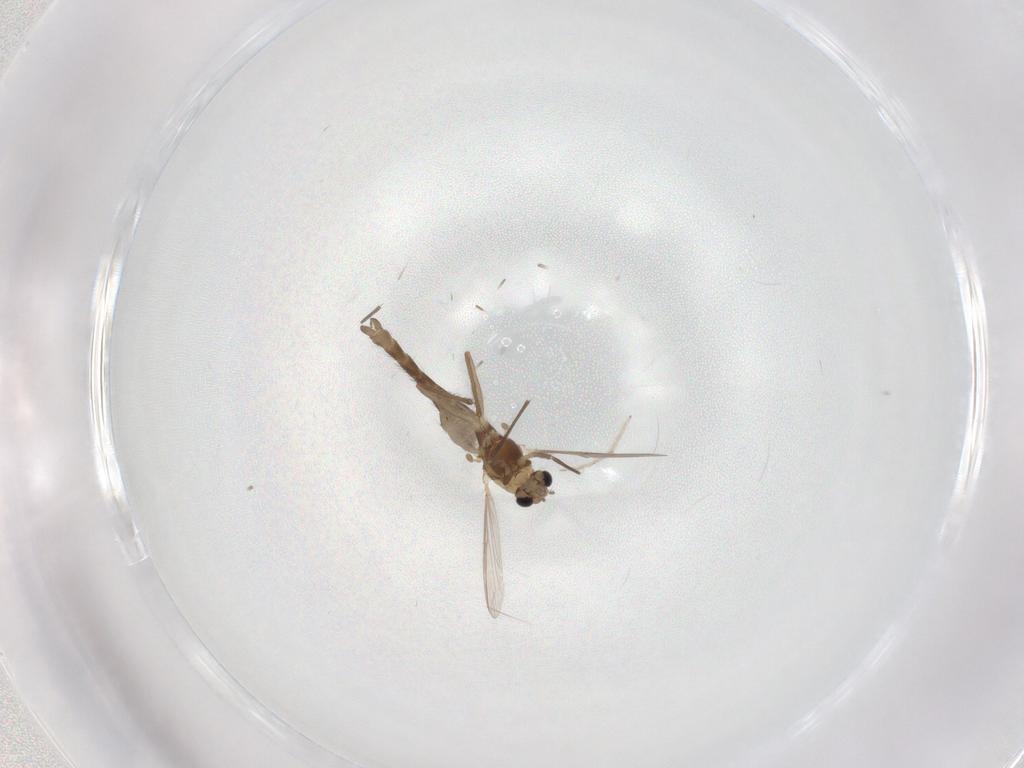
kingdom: Animalia
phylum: Arthropoda
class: Insecta
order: Diptera
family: Chironomidae
